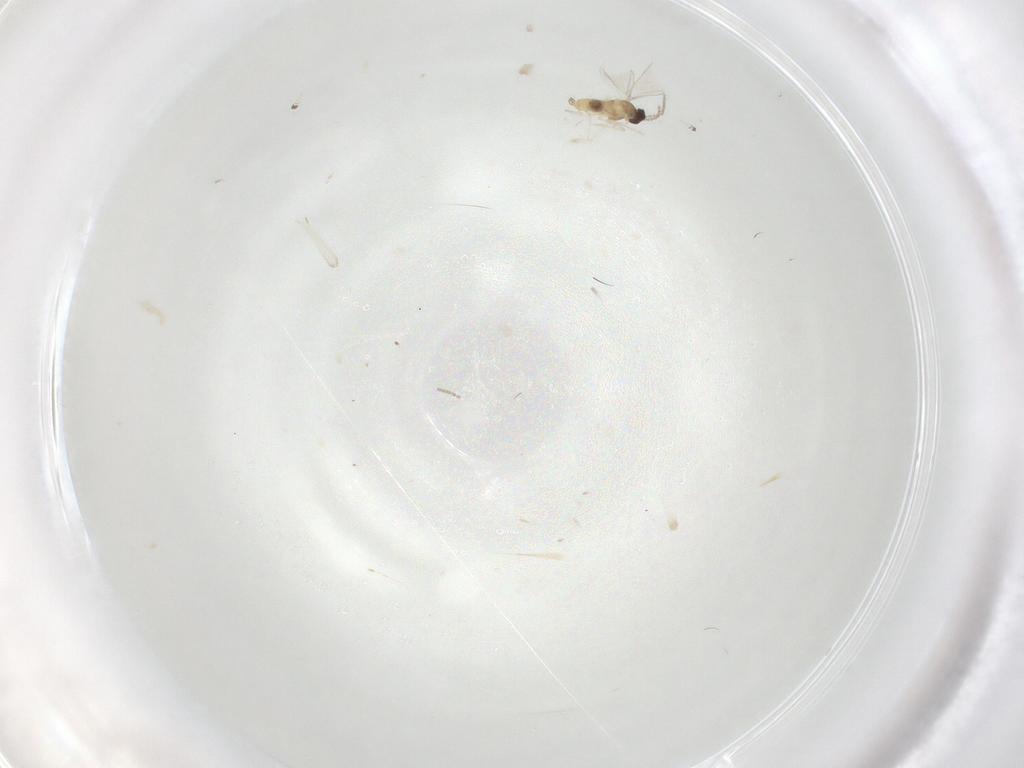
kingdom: Animalia
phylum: Arthropoda
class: Insecta
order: Diptera
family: Cecidomyiidae
